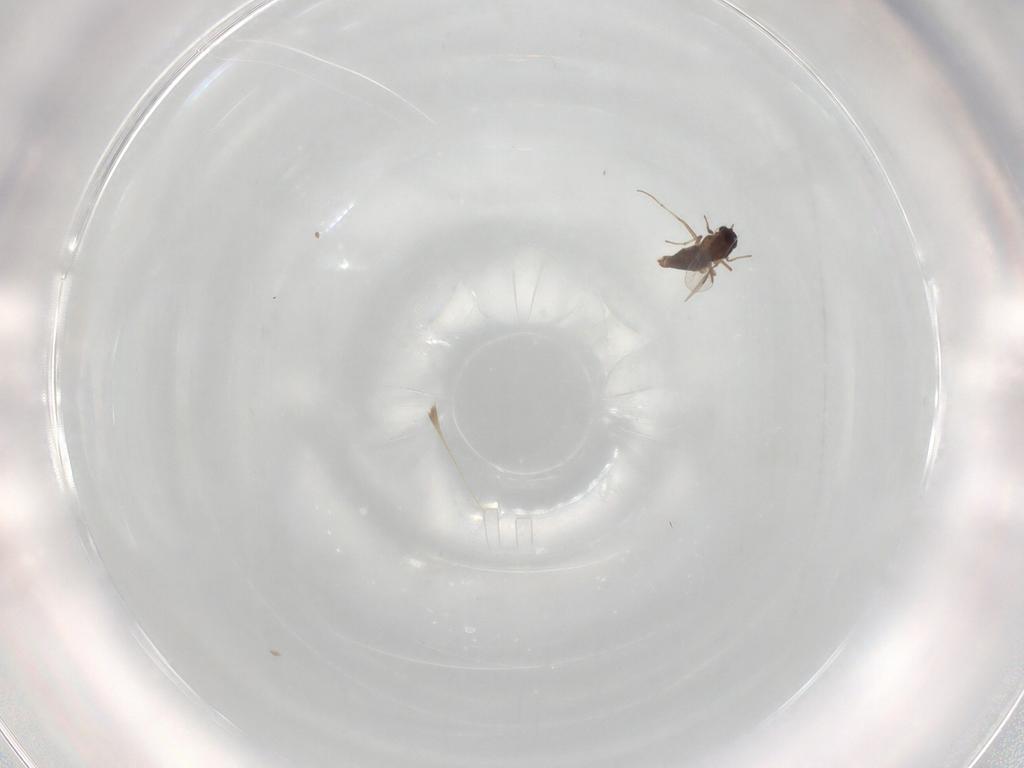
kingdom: Animalia
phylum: Arthropoda
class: Insecta
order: Diptera
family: Chironomidae
